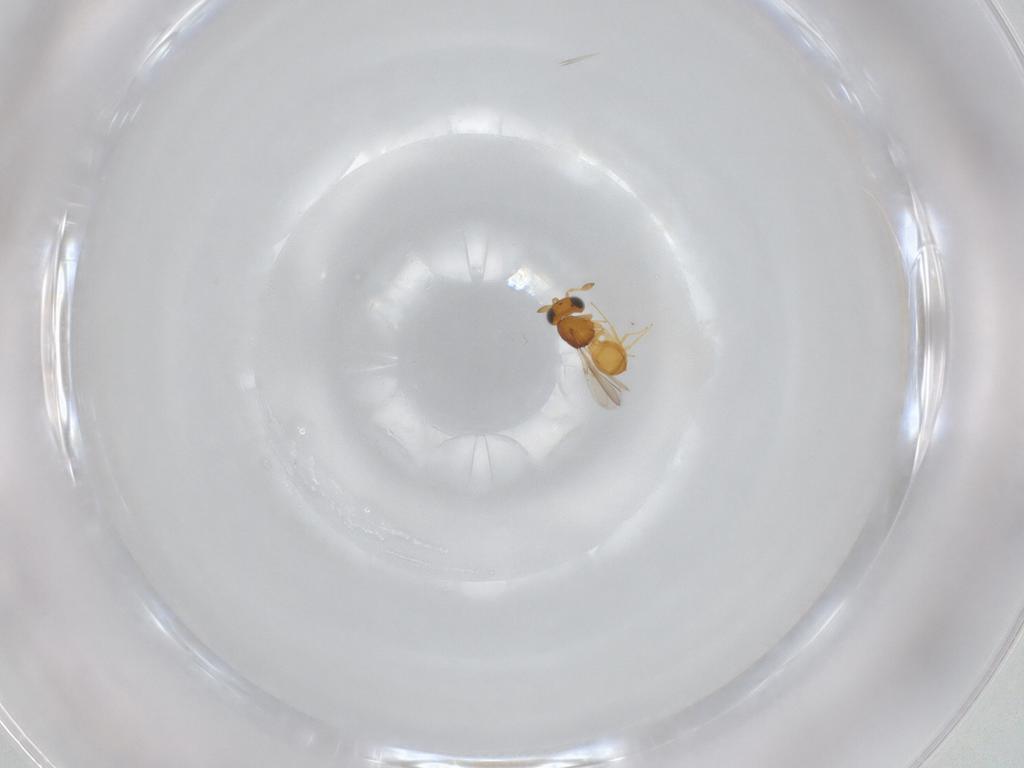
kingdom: Animalia
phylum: Arthropoda
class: Insecta
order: Hymenoptera
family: Scelionidae
